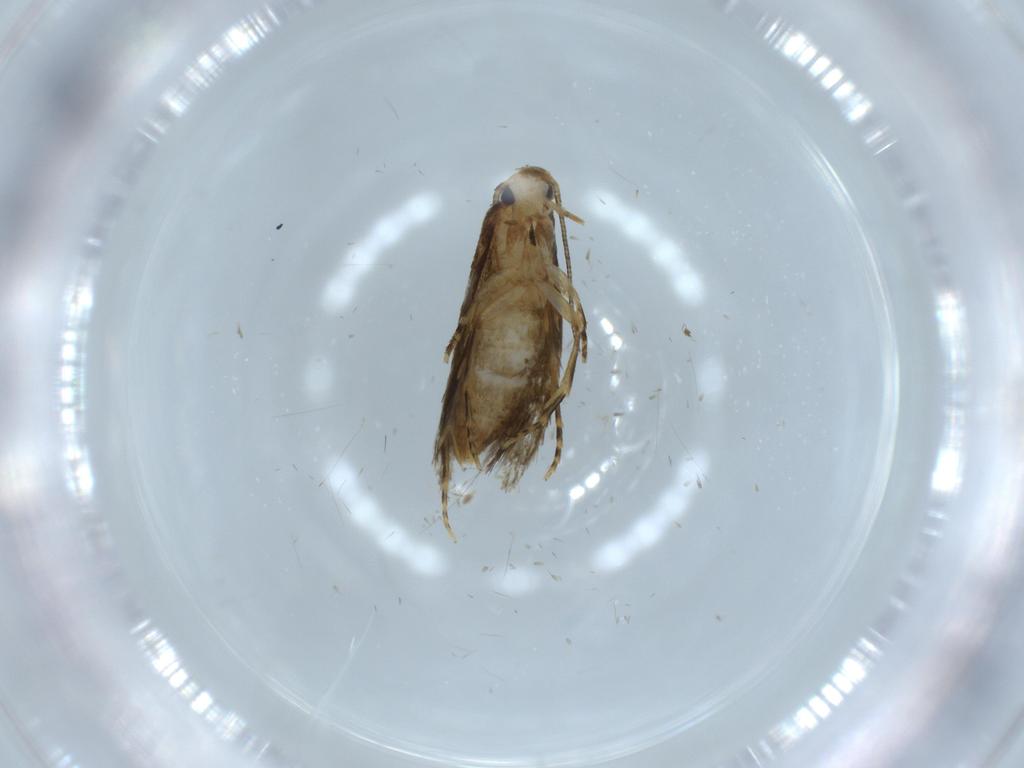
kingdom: Animalia
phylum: Arthropoda
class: Insecta
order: Lepidoptera
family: Tineidae
